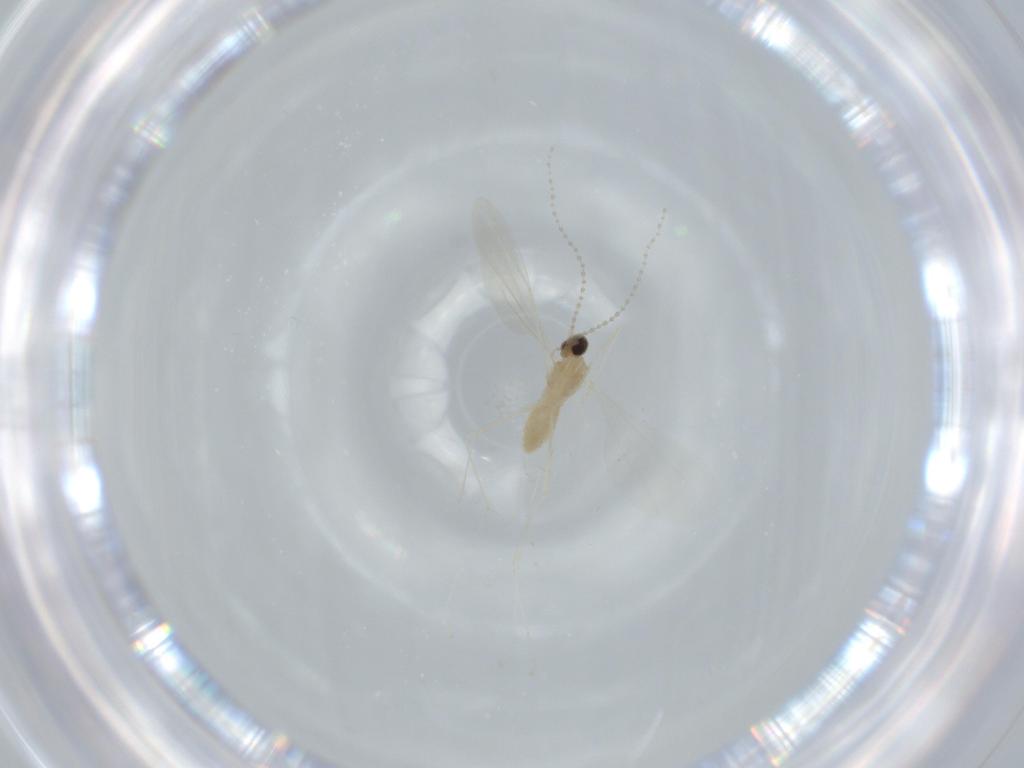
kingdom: Animalia
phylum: Arthropoda
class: Insecta
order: Diptera
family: Cecidomyiidae
